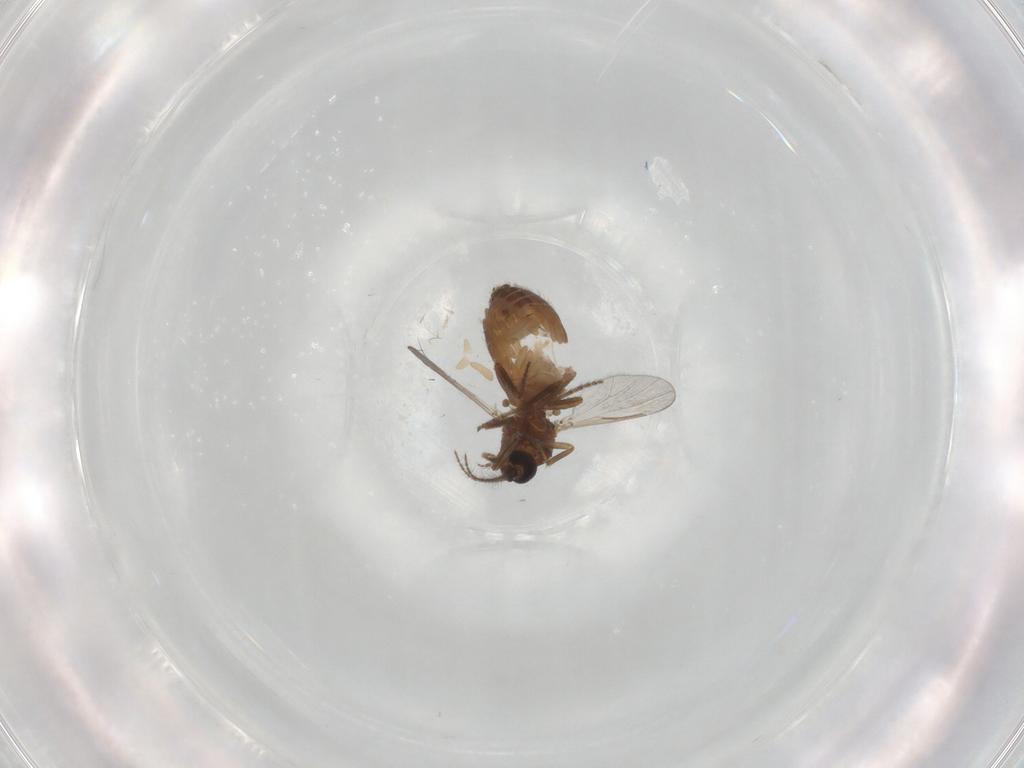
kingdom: Animalia
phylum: Arthropoda
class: Insecta
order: Diptera
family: Ceratopogonidae
